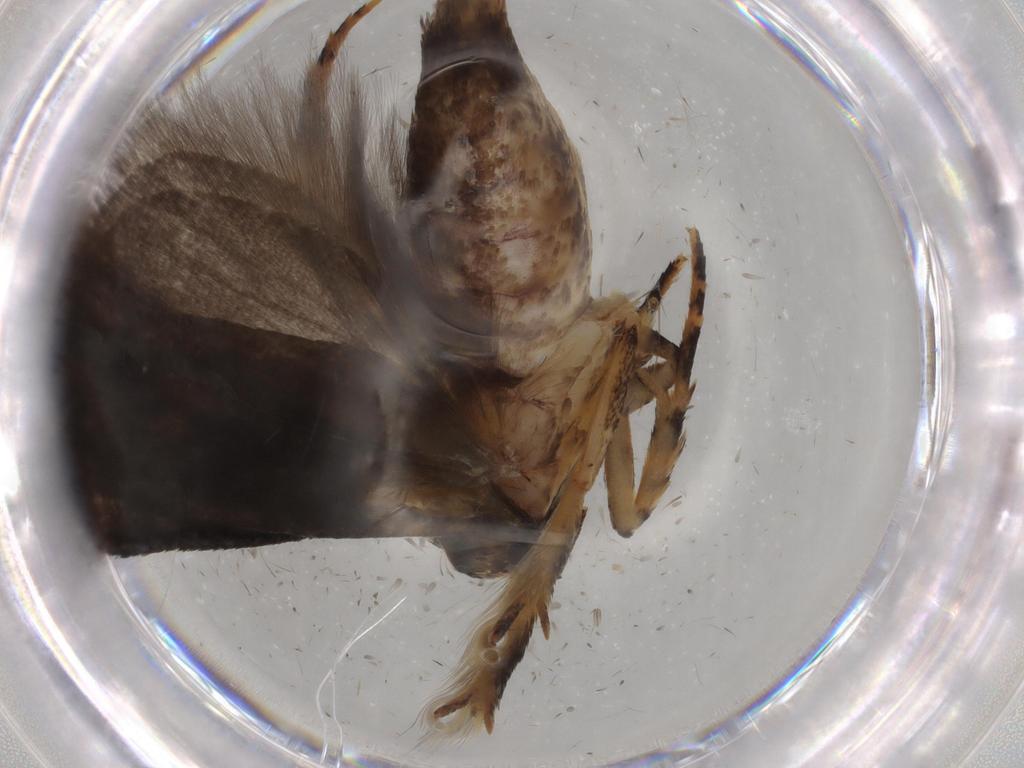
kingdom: Animalia
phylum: Arthropoda
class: Insecta
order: Lepidoptera
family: Gelechiidae
